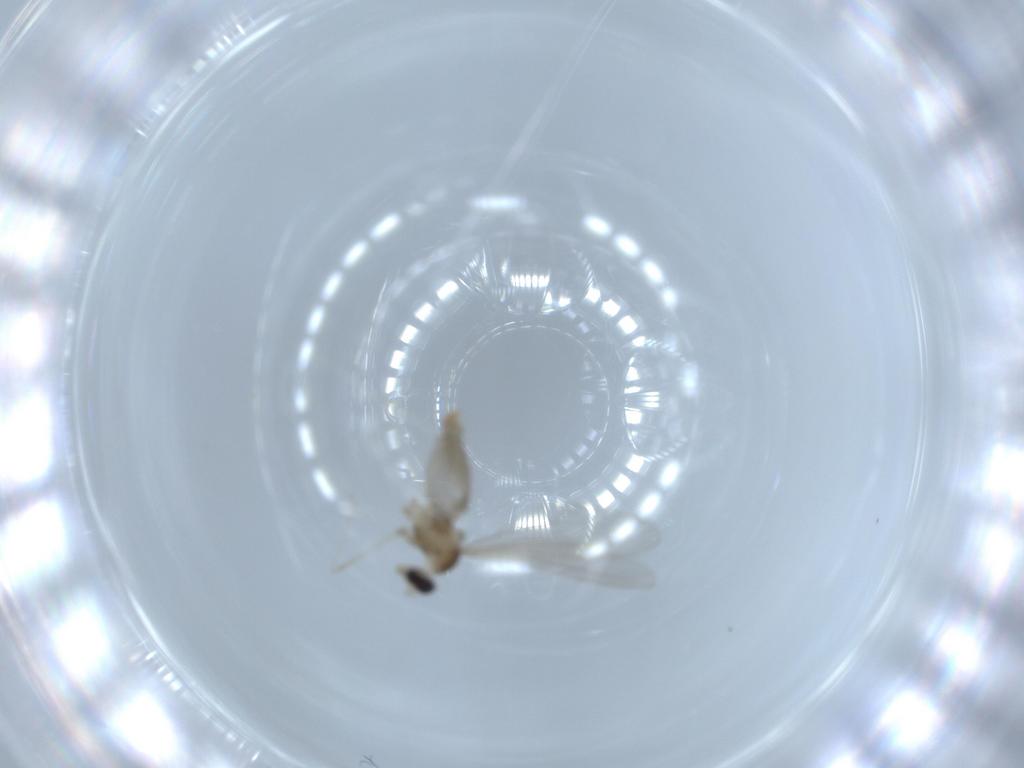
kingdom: Animalia
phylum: Arthropoda
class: Insecta
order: Diptera
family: Cecidomyiidae
